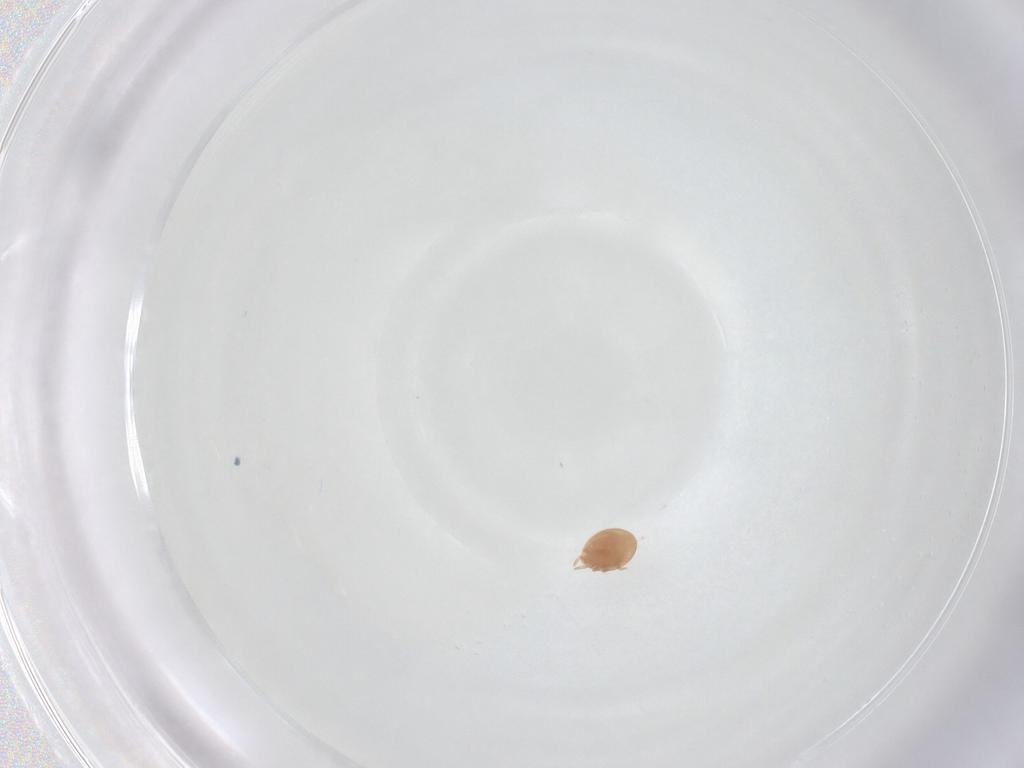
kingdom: Animalia
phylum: Arthropoda
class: Arachnida
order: Mesostigmata
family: Trematuridae
